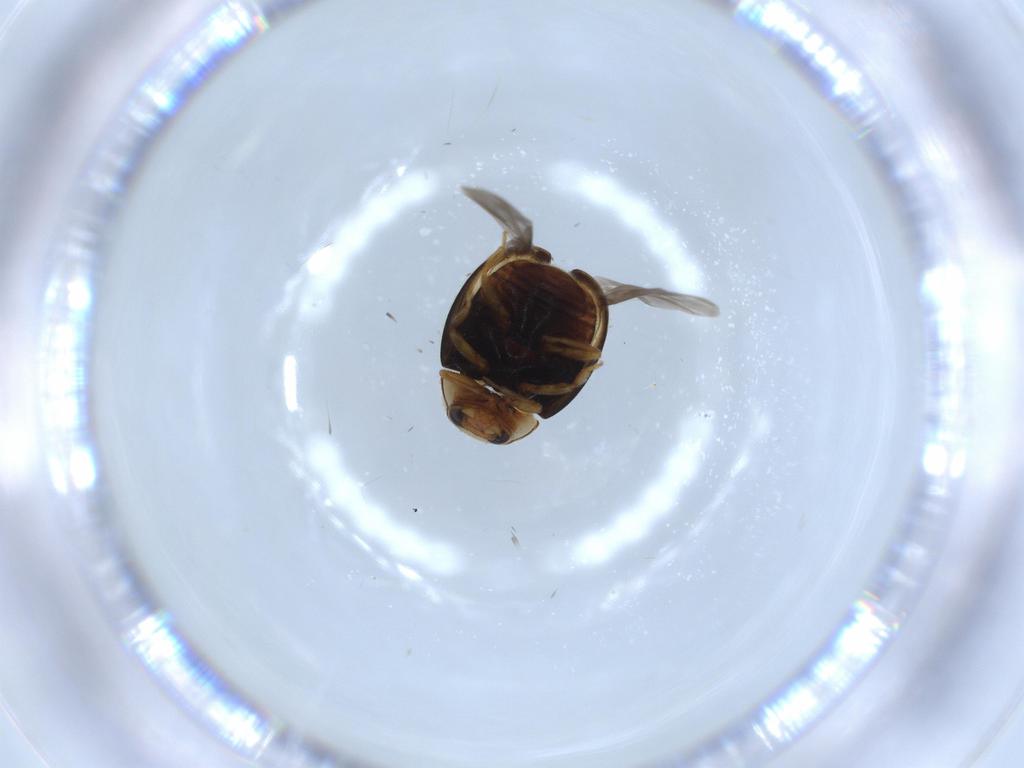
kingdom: Animalia
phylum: Arthropoda
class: Insecta
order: Coleoptera
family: Coccinellidae
